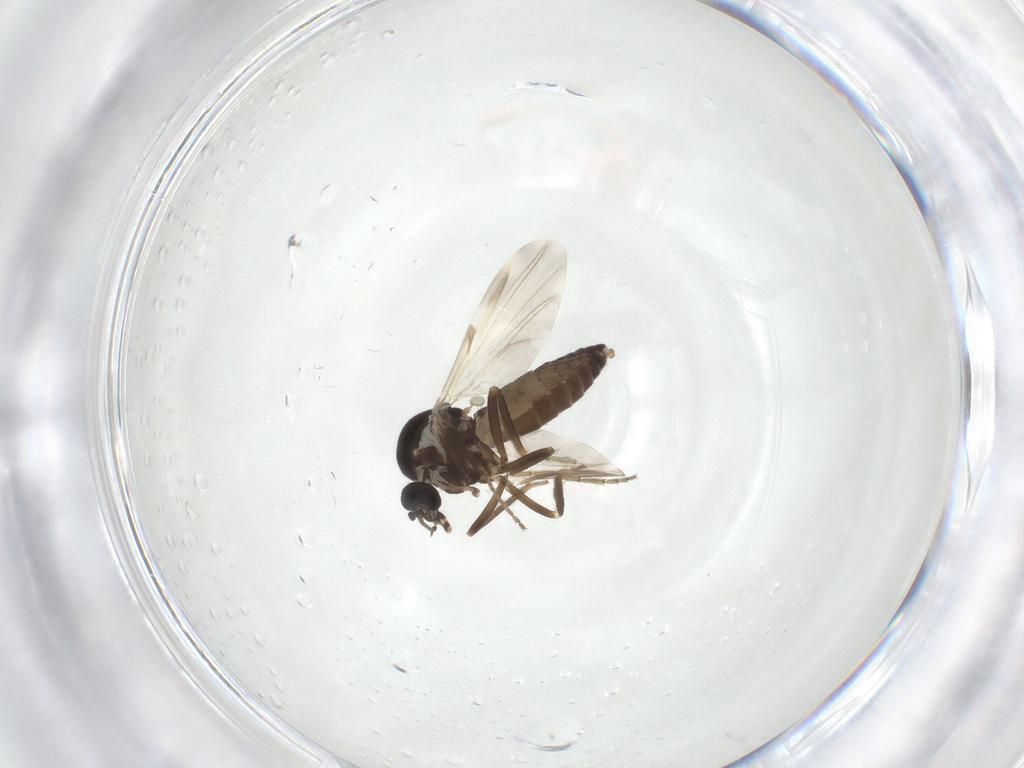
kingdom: Animalia
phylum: Arthropoda
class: Insecta
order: Diptera
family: Ceratopogonidae
